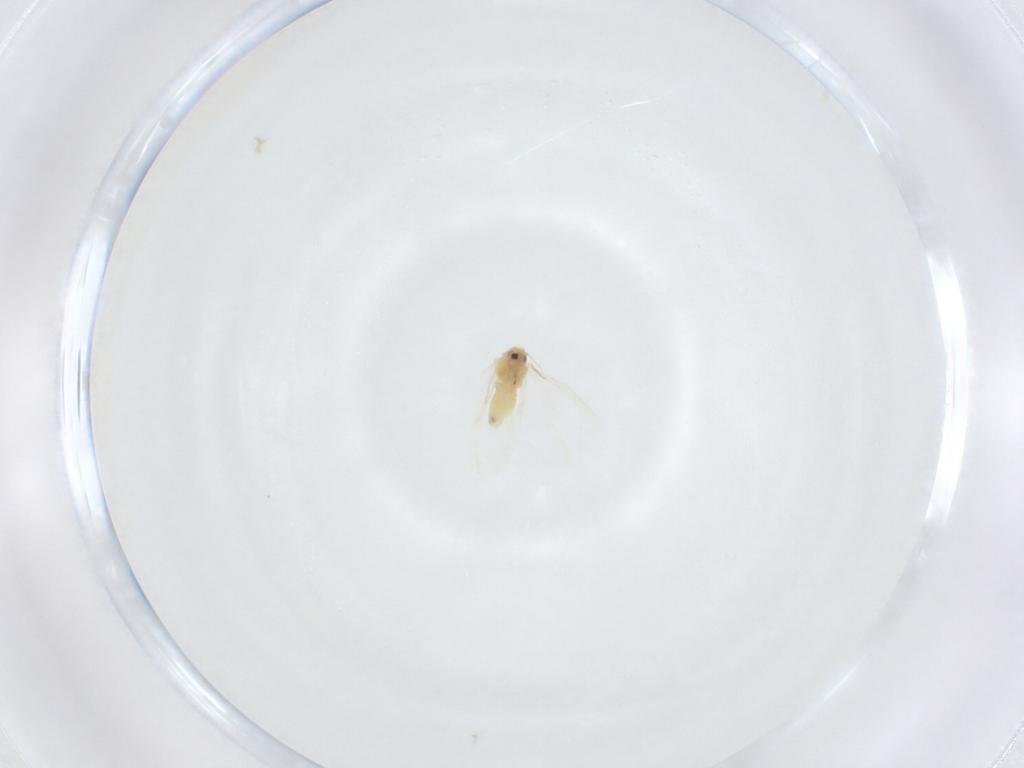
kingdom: Animalia
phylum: Arthropoda
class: Insecta
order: Hemiptera
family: Aleyrodidae
